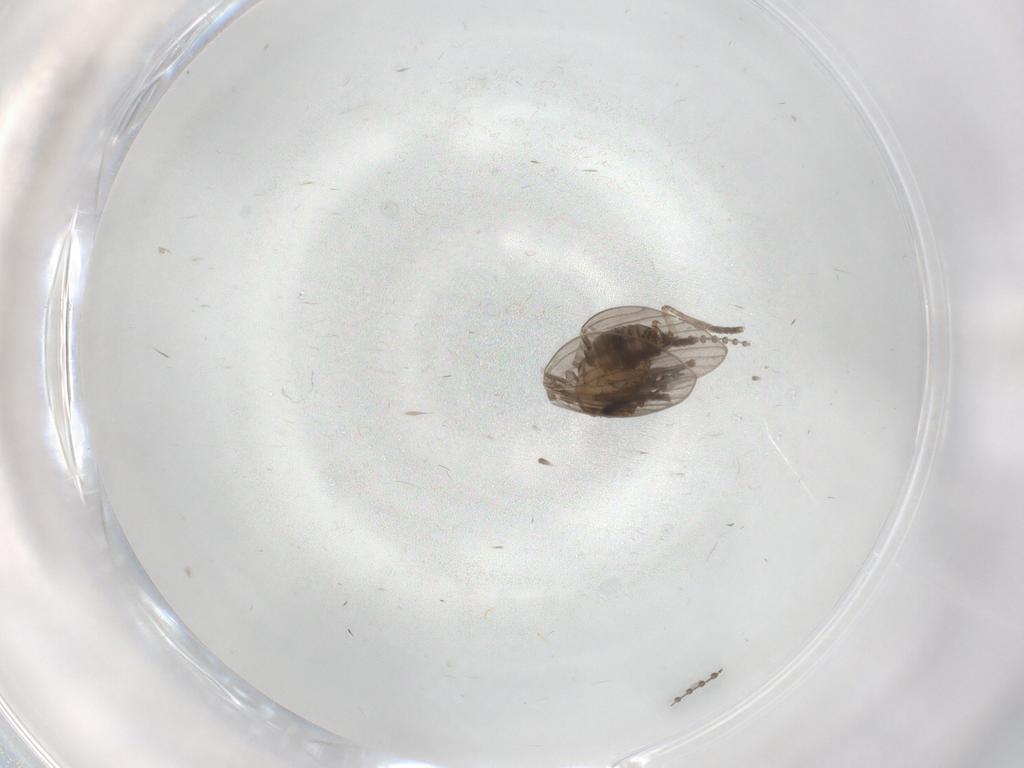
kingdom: Animalia
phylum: Arthropoda
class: Insecta
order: Diptera
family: Psychodidae
